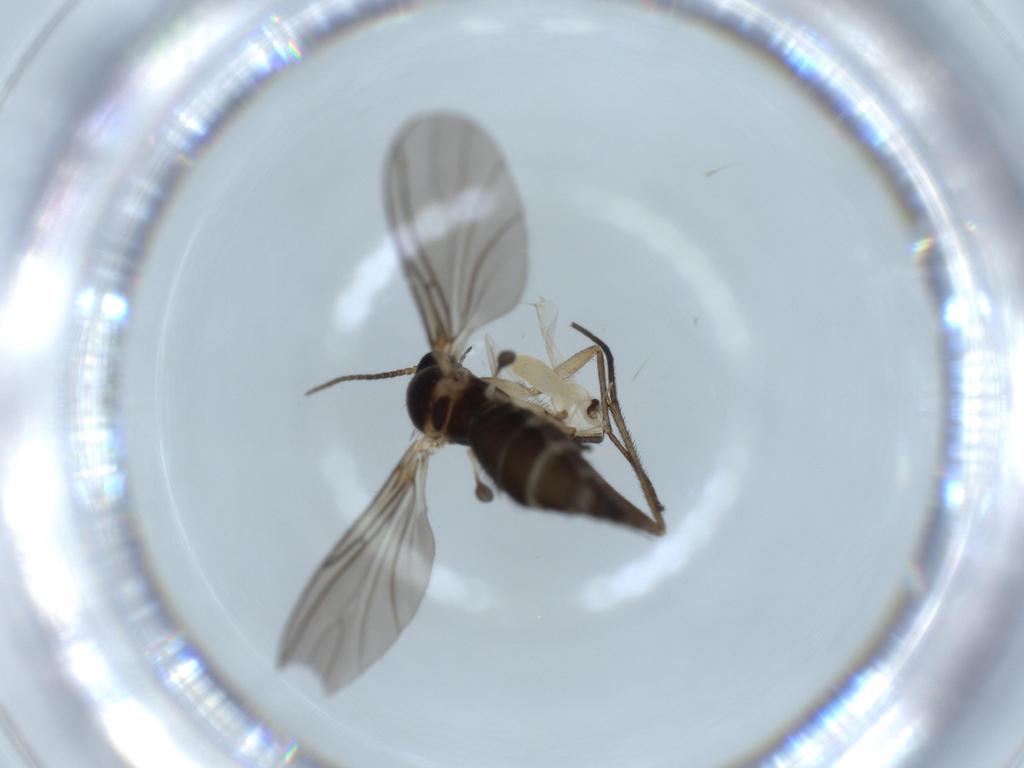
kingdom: Animalia
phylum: Arthropoda
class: Insecta
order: Diptera
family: Sciaridae
